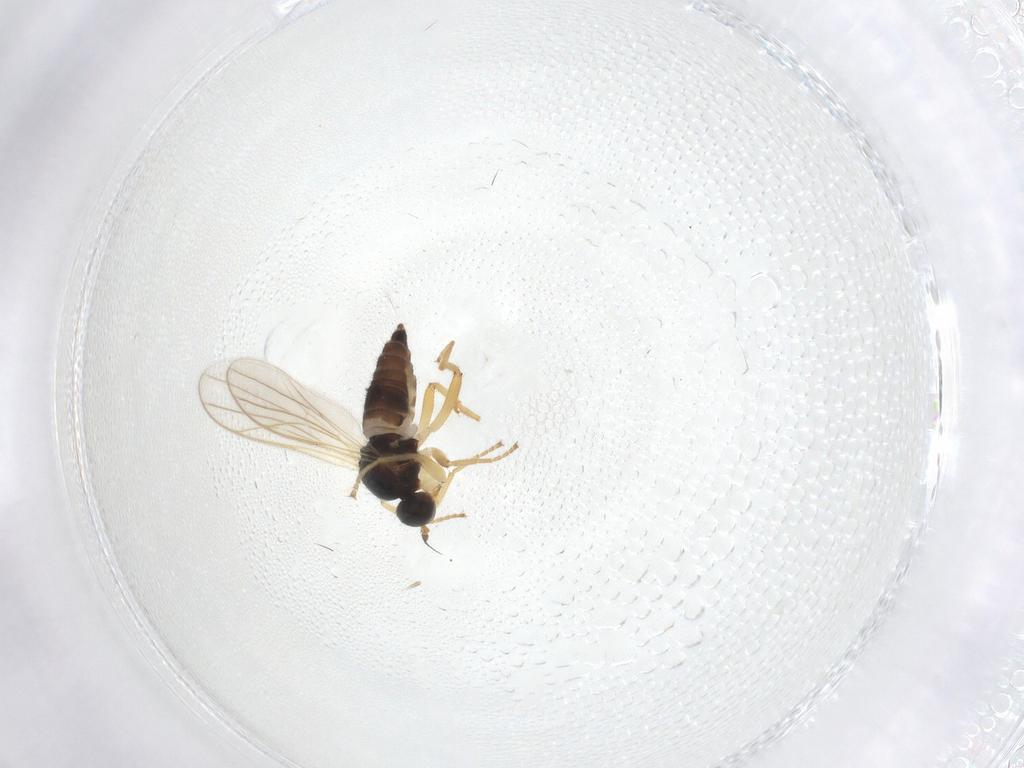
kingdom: Animalia
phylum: Arthropoda
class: Insecta
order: Diptera
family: Hybotidae
